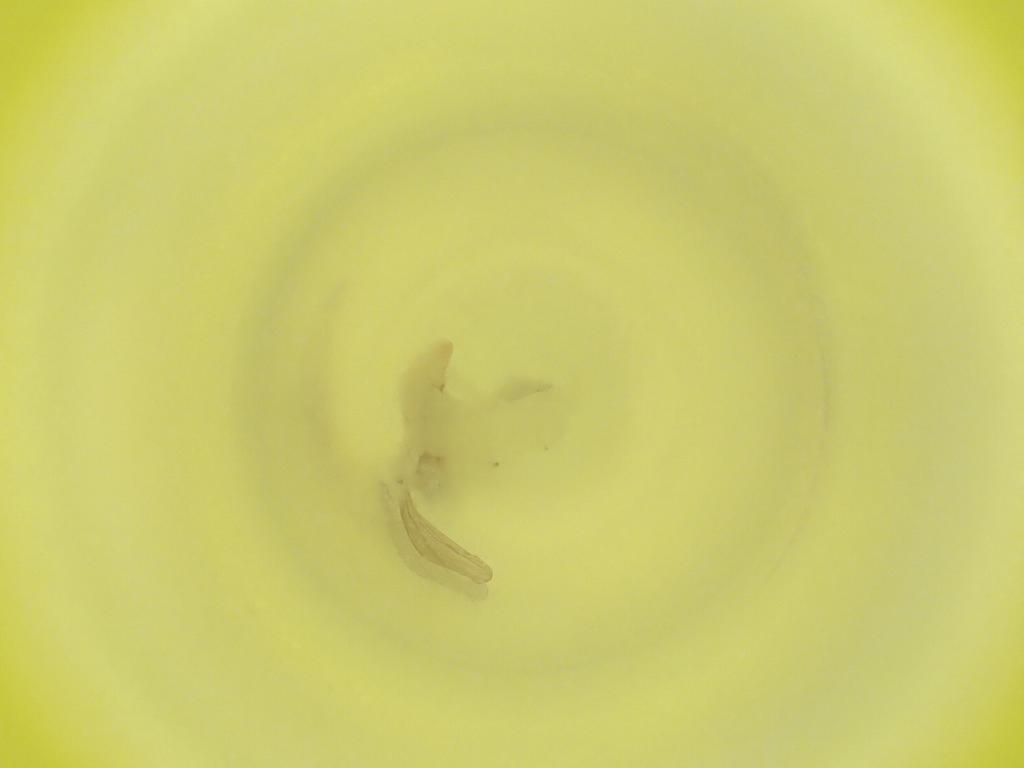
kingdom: Animalia
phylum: Arthropoda
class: Insecta
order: Diptera
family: Cecidomyiidae
